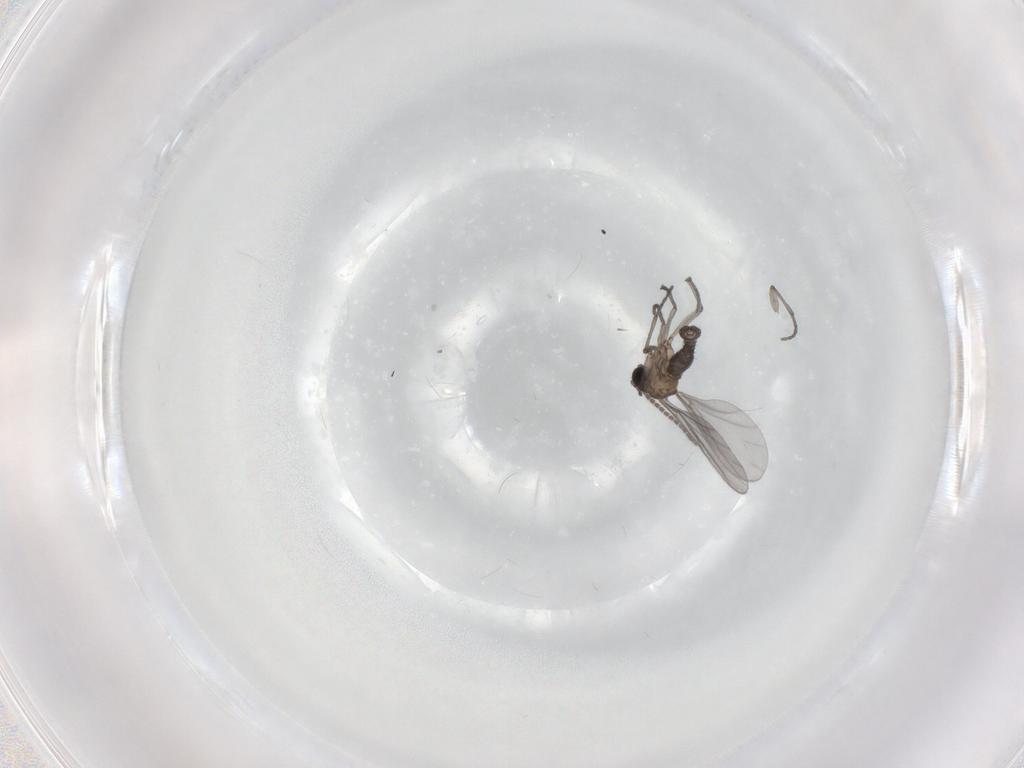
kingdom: Animalia
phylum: Arthropoda
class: Insecta
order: Diptera
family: Sciaridae
